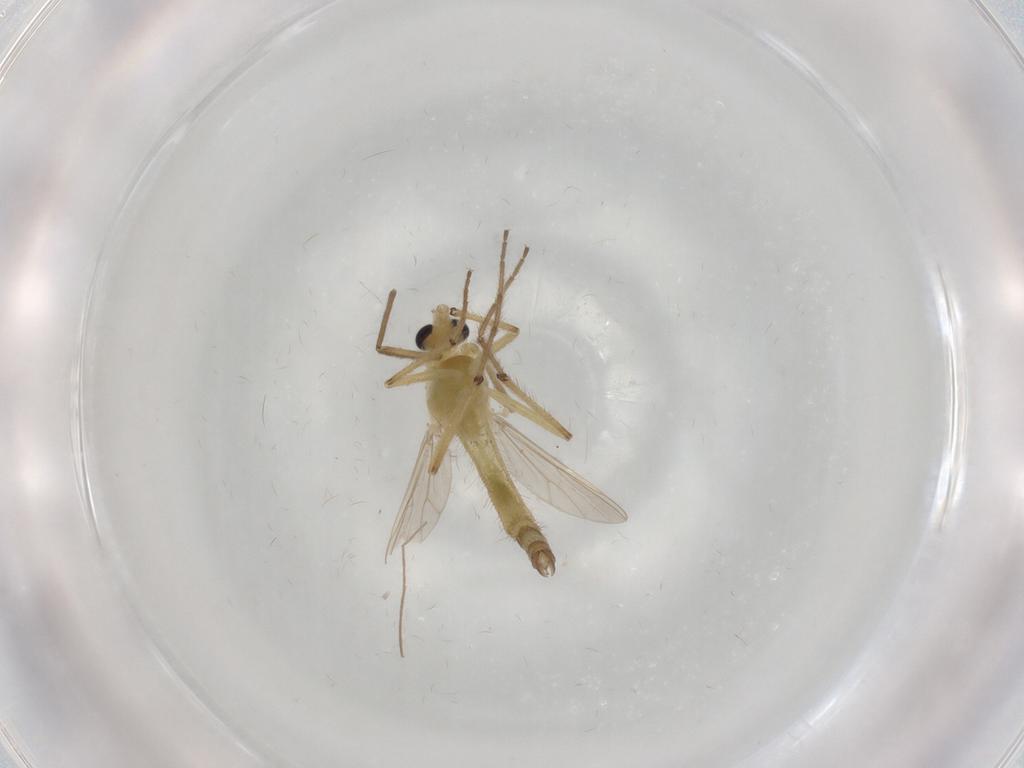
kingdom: Animalia
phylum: Arthropoda
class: Insecta
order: Diptera
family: Chironomidae
